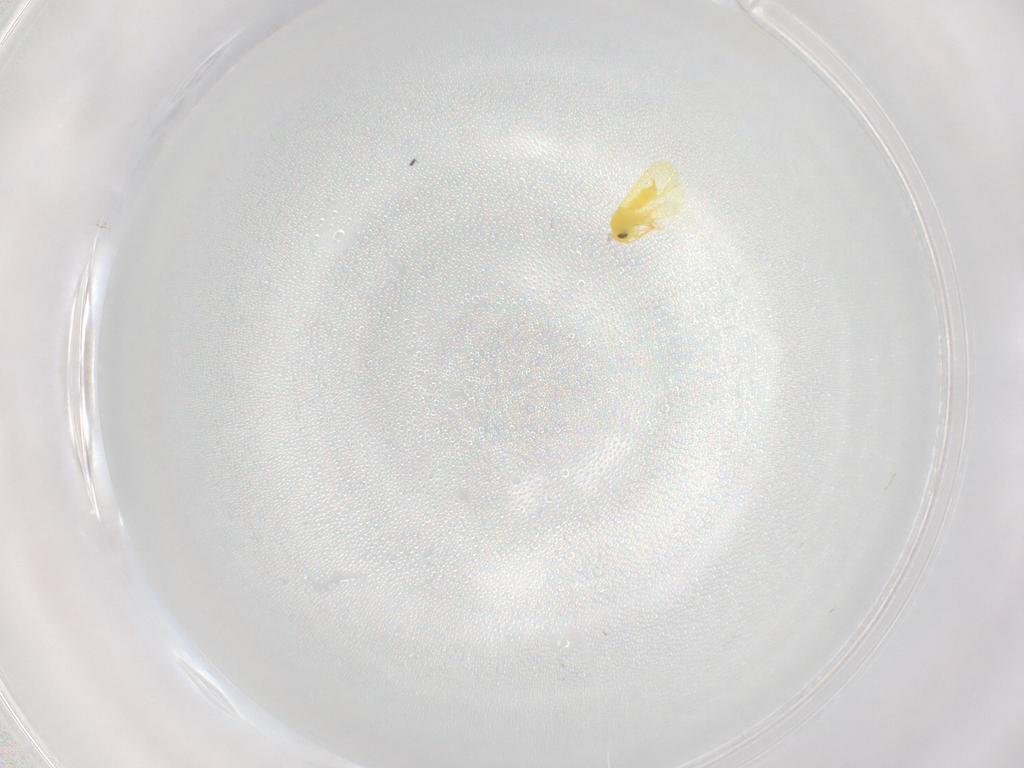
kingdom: Animalia
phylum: Arthropoda
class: Insecta
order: Hemiptera
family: Aleyrodidae
